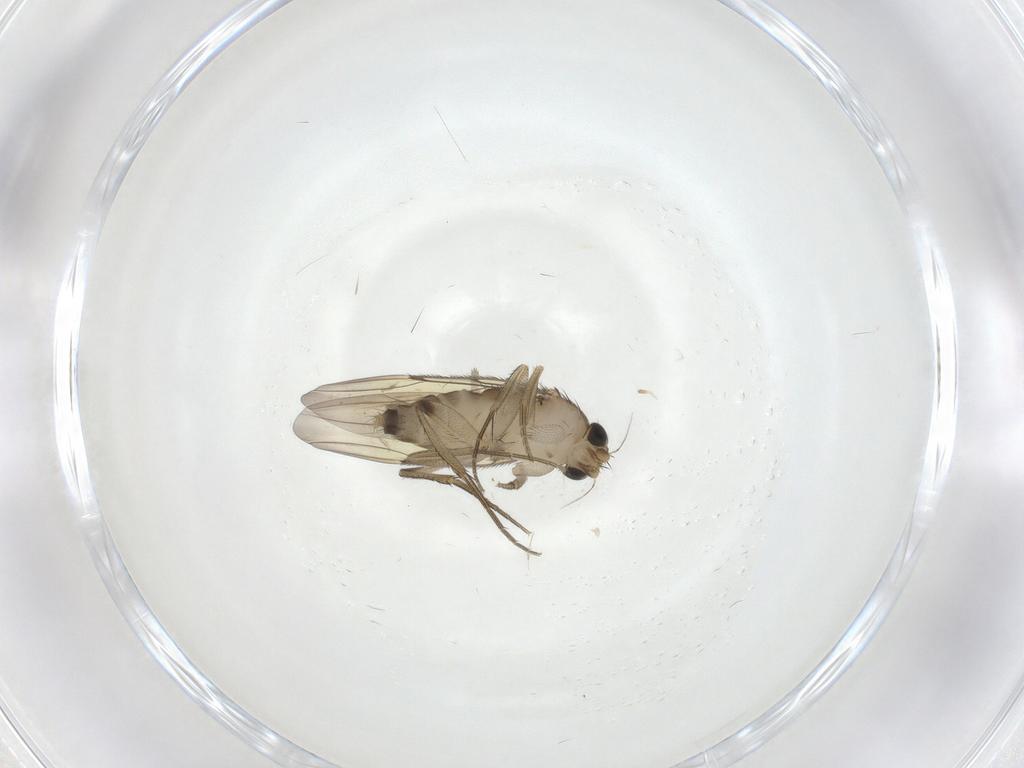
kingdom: Animalia
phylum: Arthropoda
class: Insecta
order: Diptera
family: Phoridae
